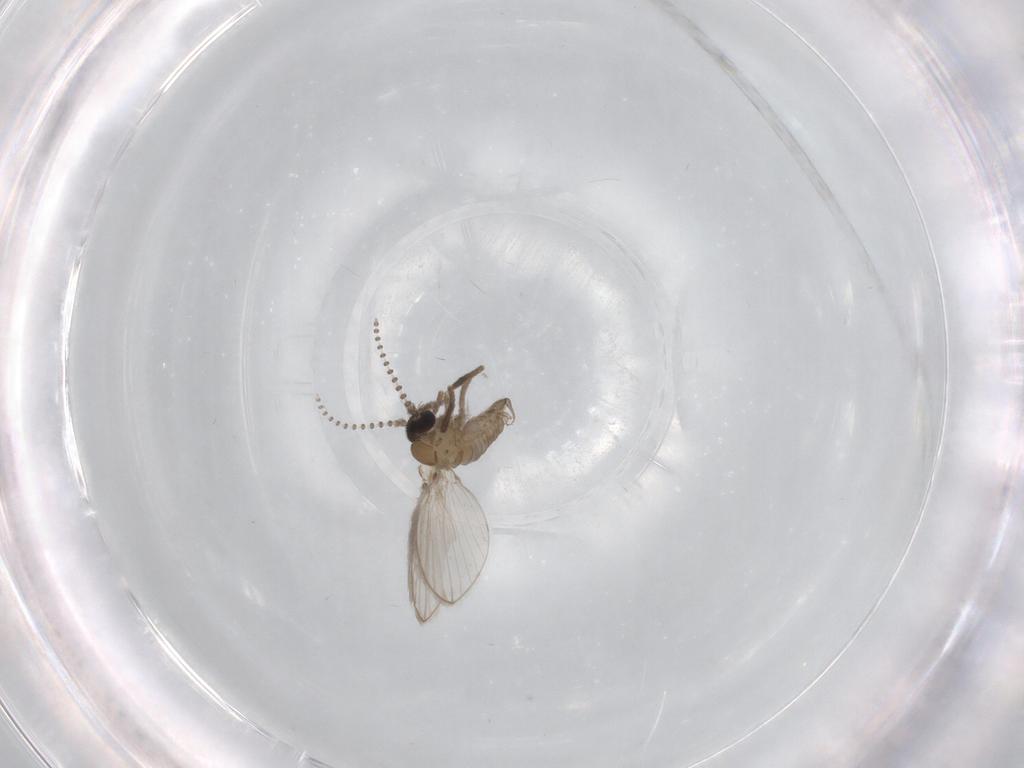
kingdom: Animalia
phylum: Arthropoda
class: Insecta
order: Diptera
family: Psychodidae
